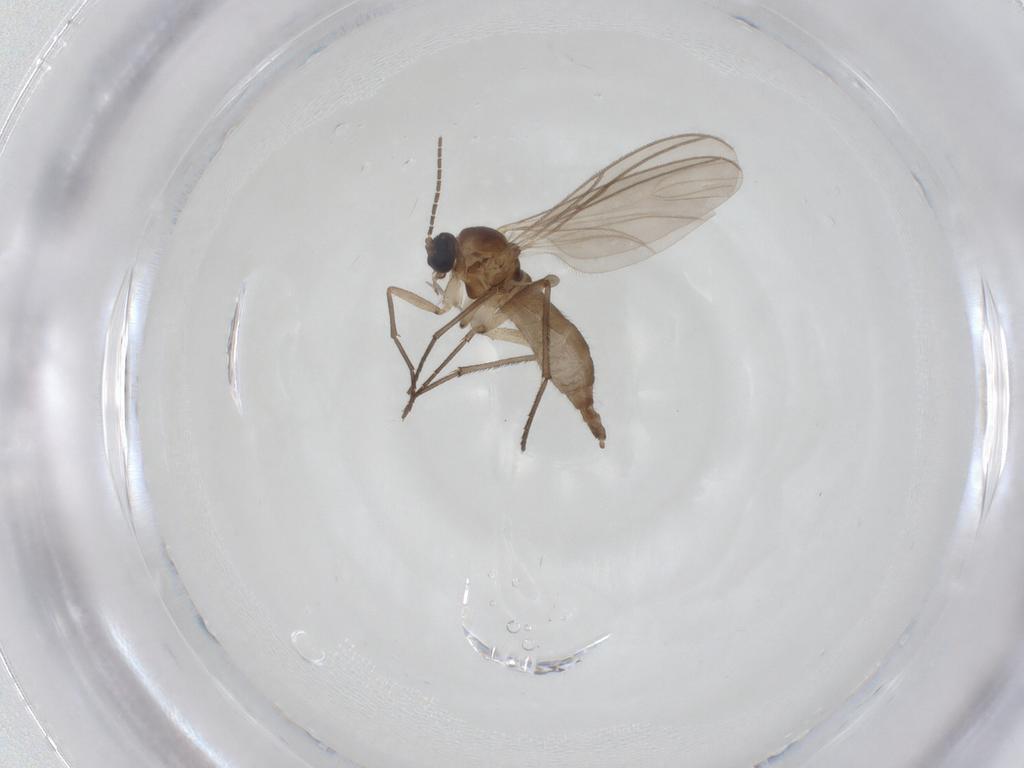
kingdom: Animalia
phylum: Arthropoda
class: Insecta
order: Diptera
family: Sciaridae
